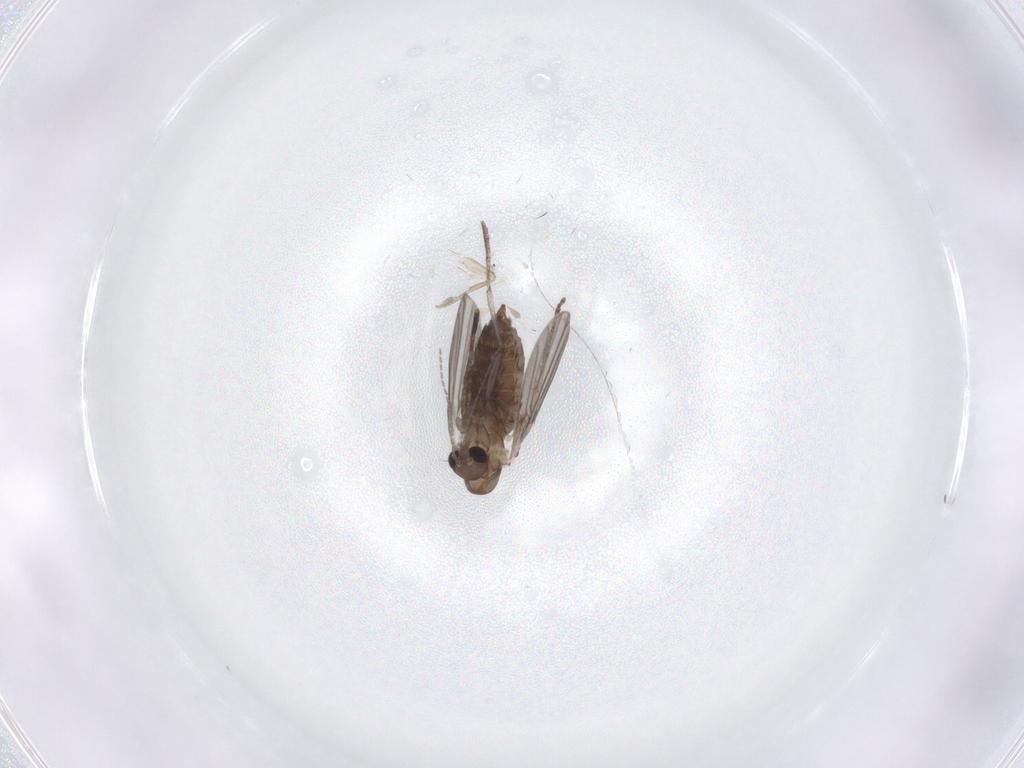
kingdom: Animalia
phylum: Arthropoda
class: Insecta
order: Diptera
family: Phoridae
